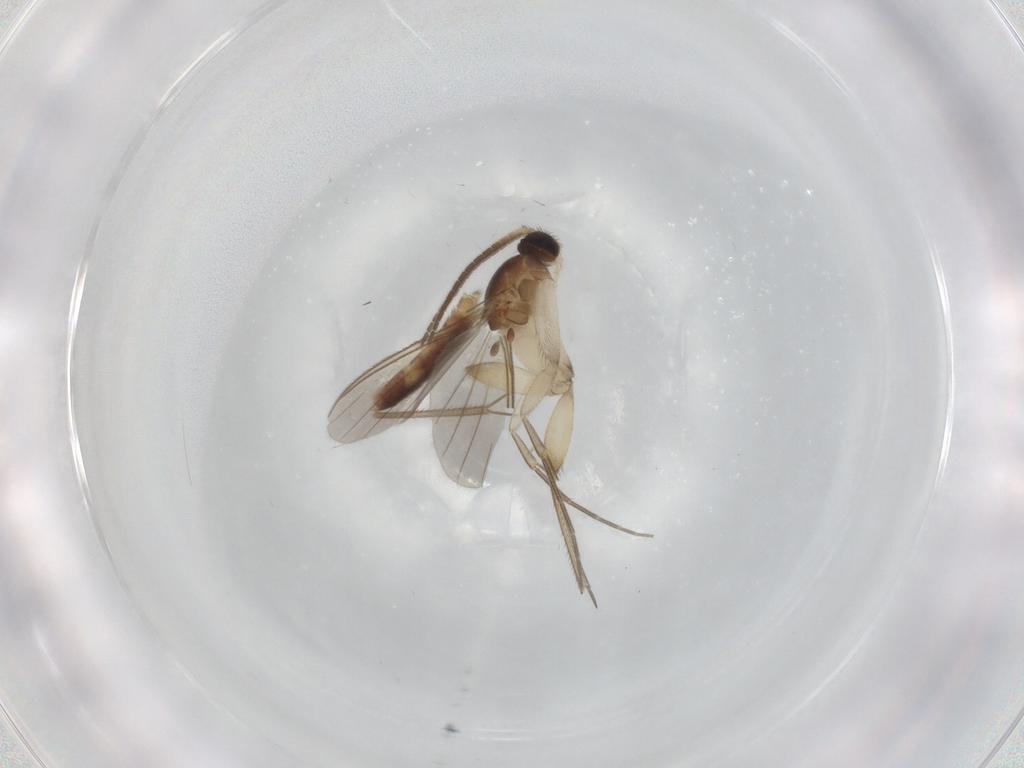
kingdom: Animalia
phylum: Arthropoda
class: Insecta
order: Diptera
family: Mycetophilidae
